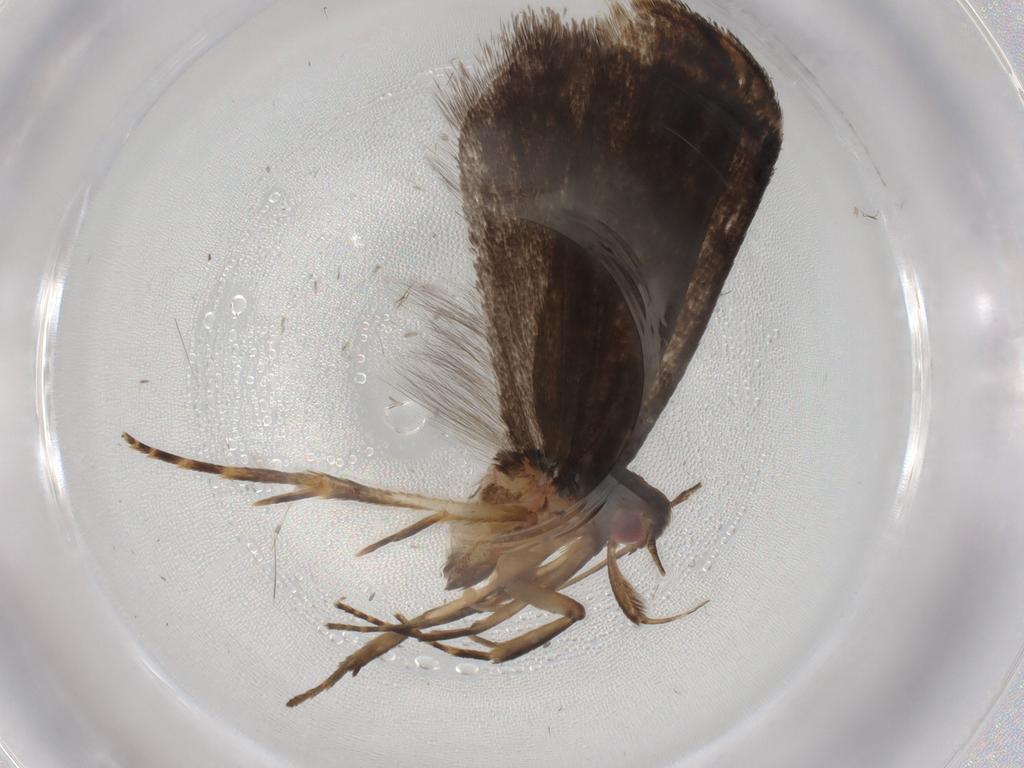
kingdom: Animalia
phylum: Arthropoda
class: Insecta
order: Lepidoptera
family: Gelechiidae
